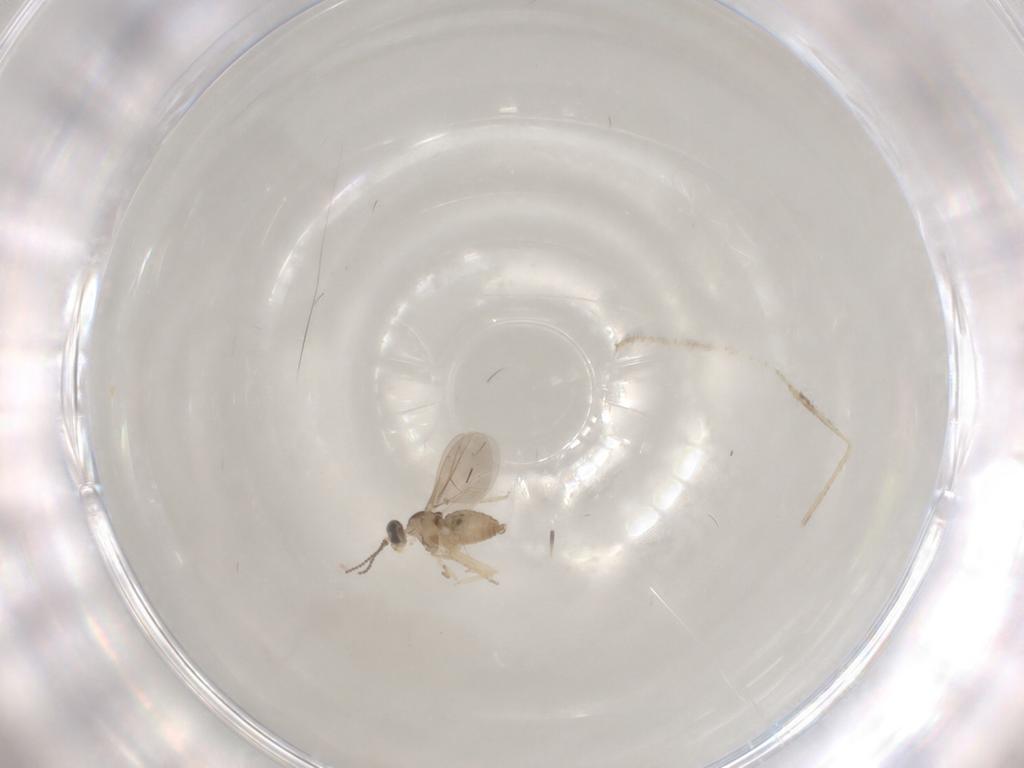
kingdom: Animalia
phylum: Arthropoda
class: Insecta
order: Diptera
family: Cecidomyiidae
